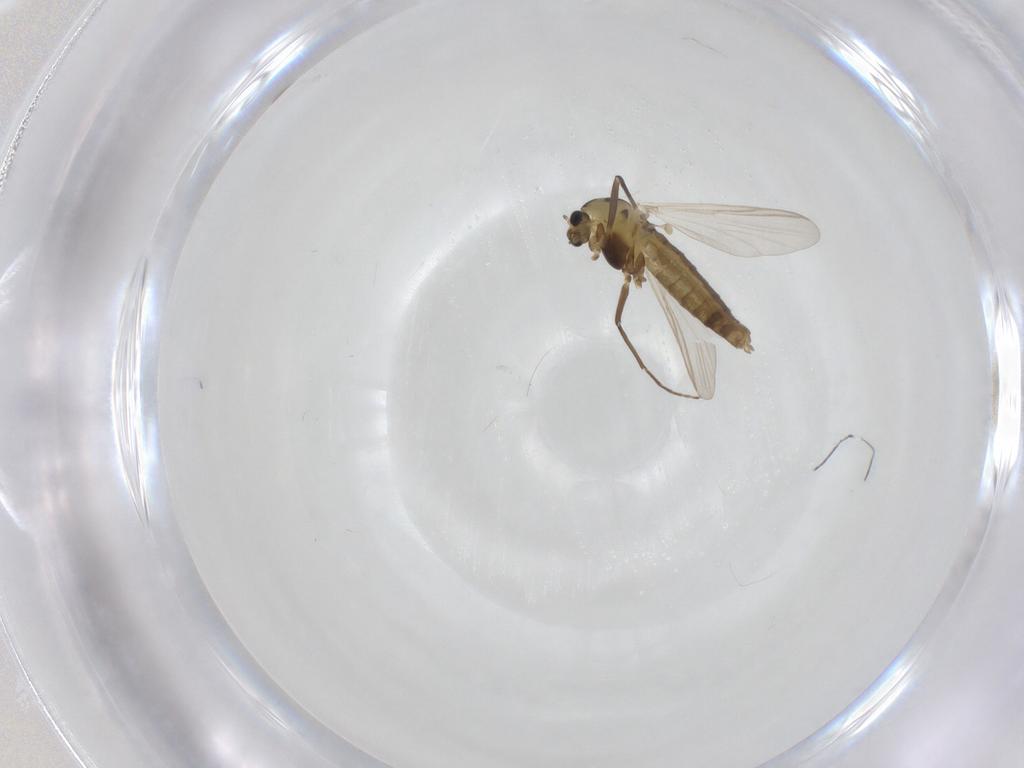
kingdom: Animalia
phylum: Arthropoda
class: Insecta
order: Diptera
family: Chironomidae
